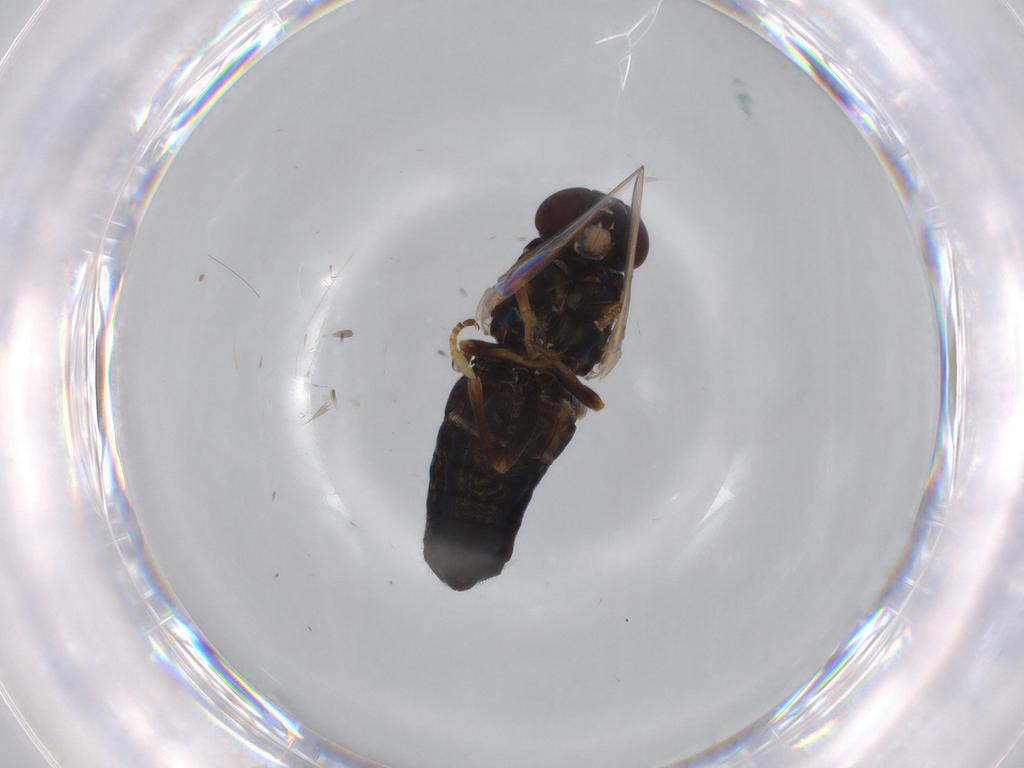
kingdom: Animalia
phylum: Arthropoda
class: Insecta
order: Diptera
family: Scenopinidae
